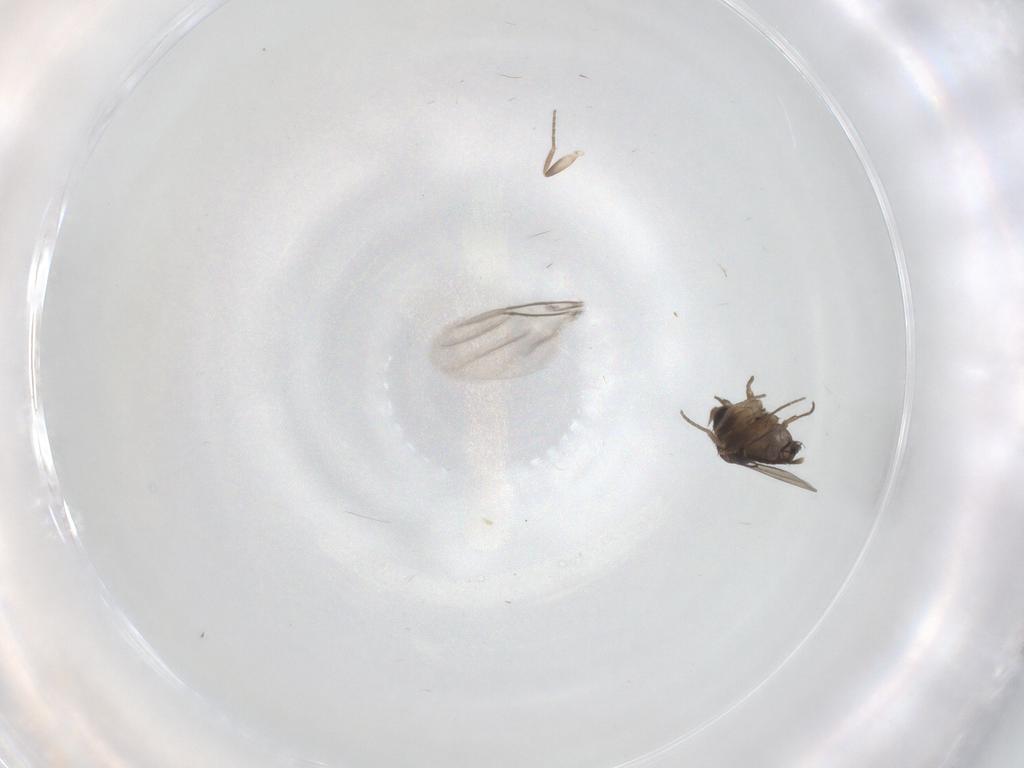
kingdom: Animalia
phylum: Arthropoda
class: Insecta
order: Diptera
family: Phoridae
